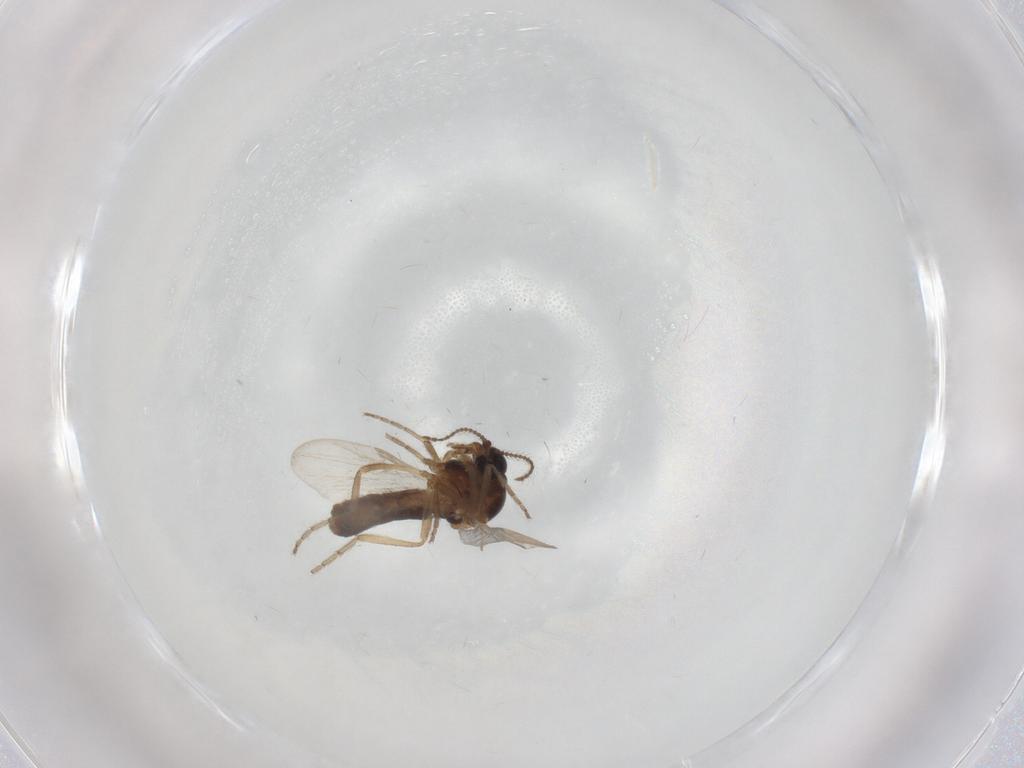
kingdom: Animalia
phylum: Arthropoda
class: Insecta
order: Diptera
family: Ceratopogonidae
